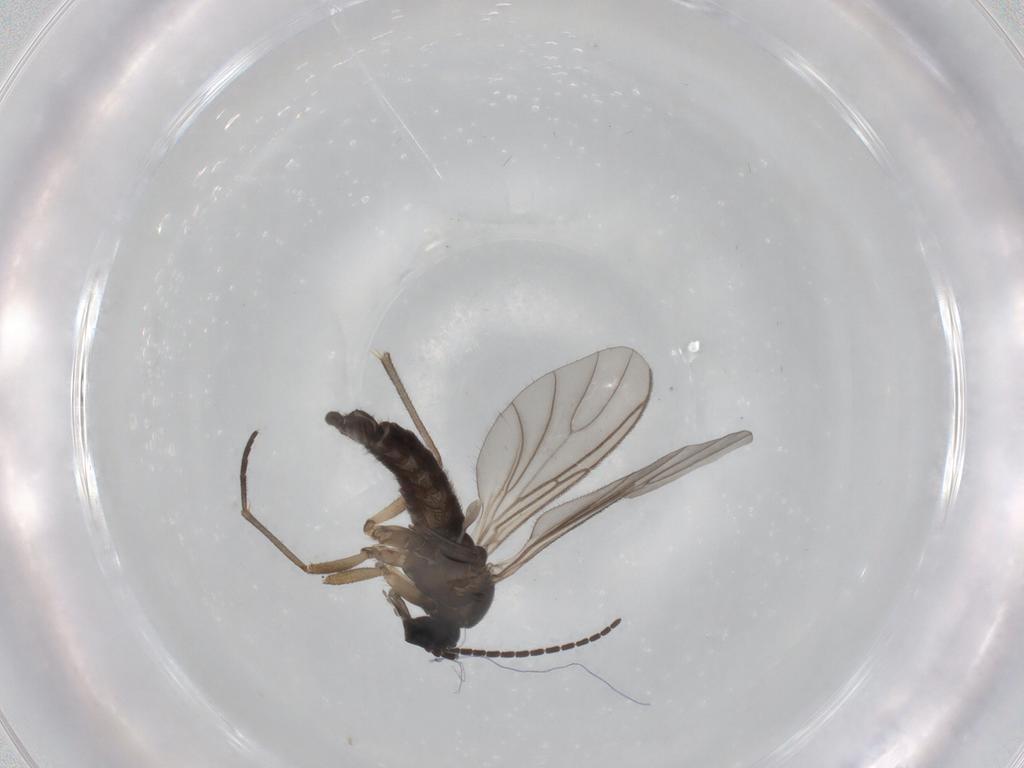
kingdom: Animalia
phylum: Arthropoda
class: Insecta
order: Diptera
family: Sciaridae
